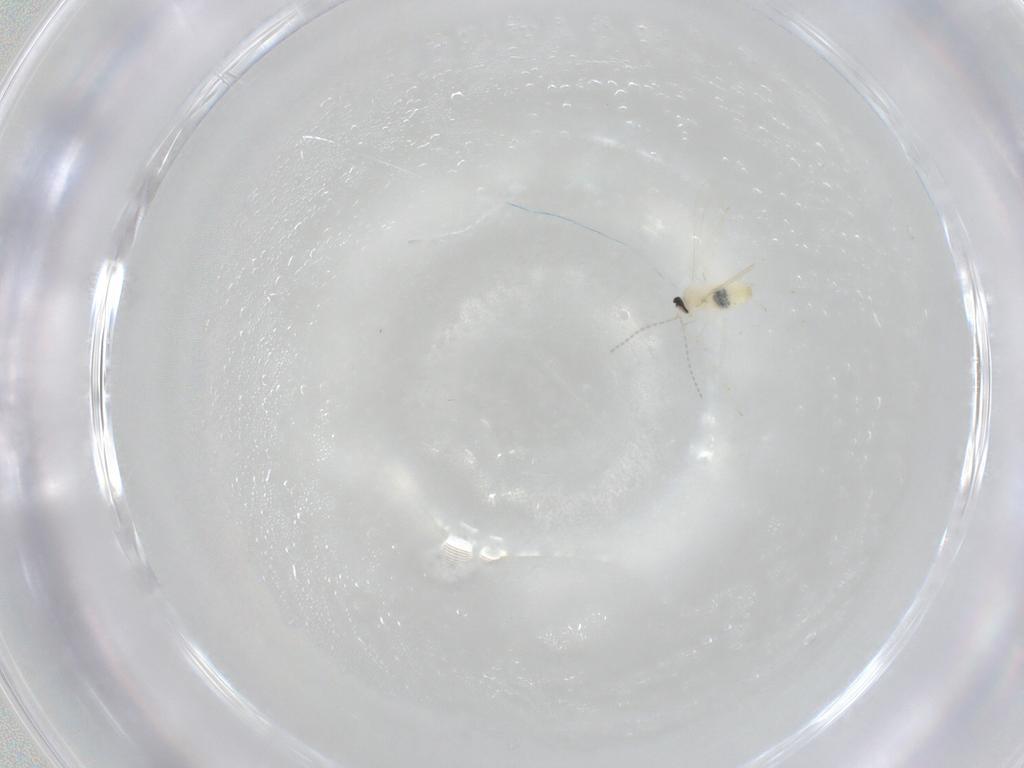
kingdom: Animalia
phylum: Arthropoda
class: Insecta
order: Diptera
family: Cecidomyiidae
